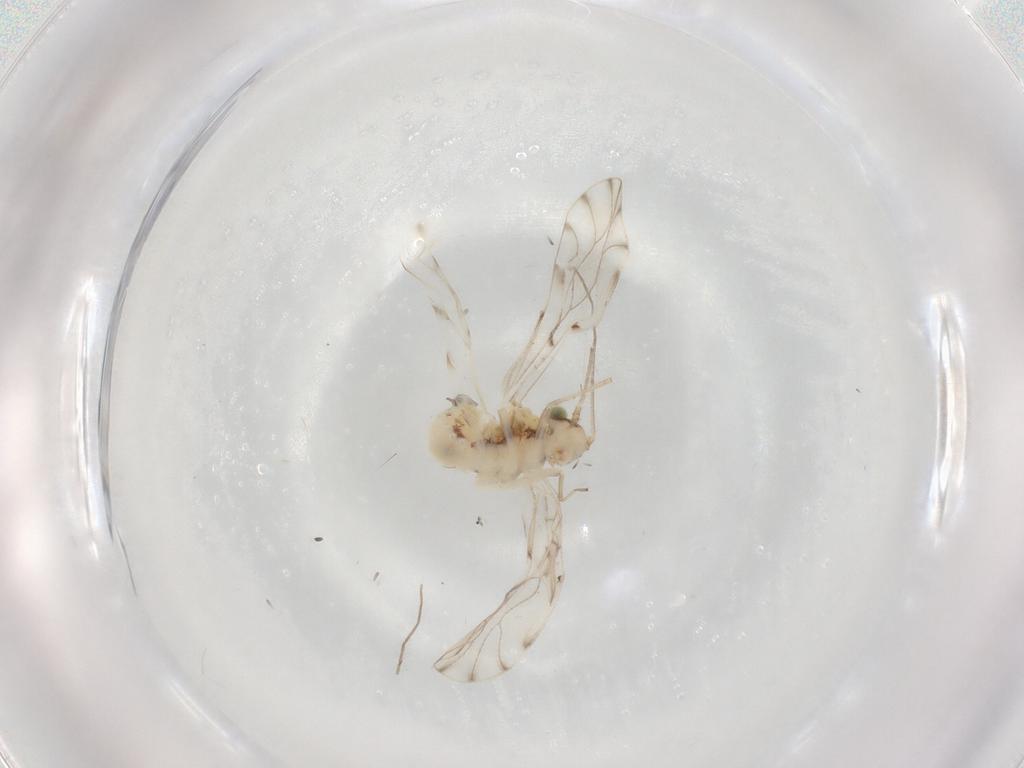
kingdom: Animalia
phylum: Arthropoda
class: Insecta
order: Psocodea
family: Ectopsocidae
